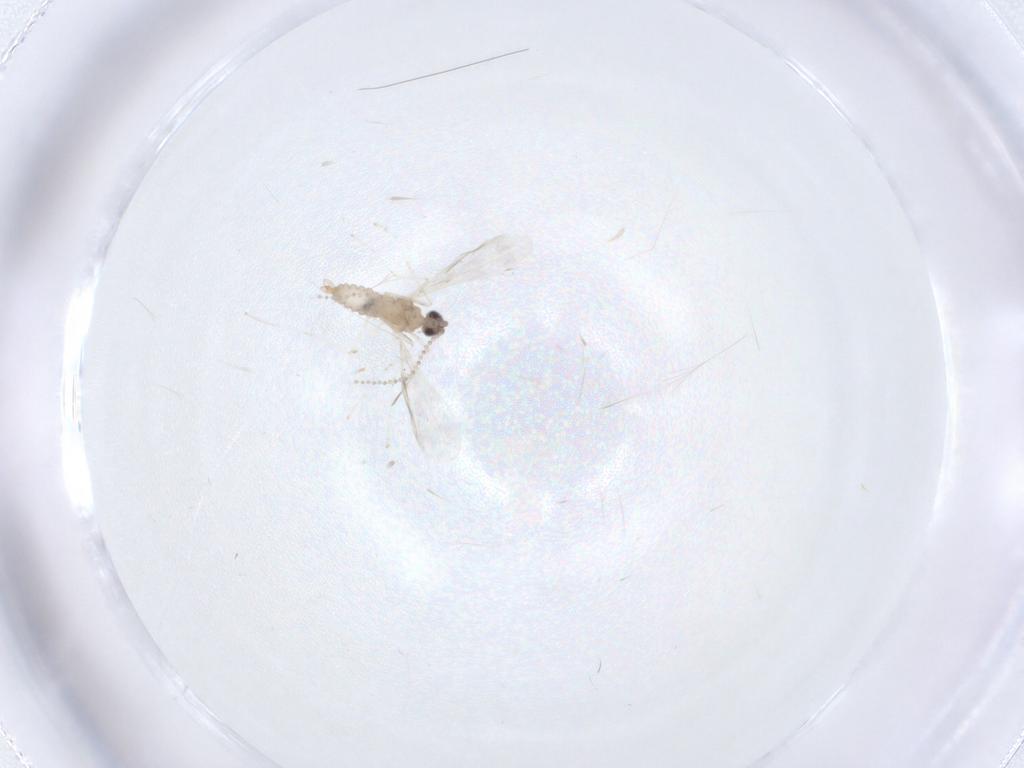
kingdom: Animalia
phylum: Arthropoda
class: Insecta
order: Diptera
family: Cecidomyiidae
